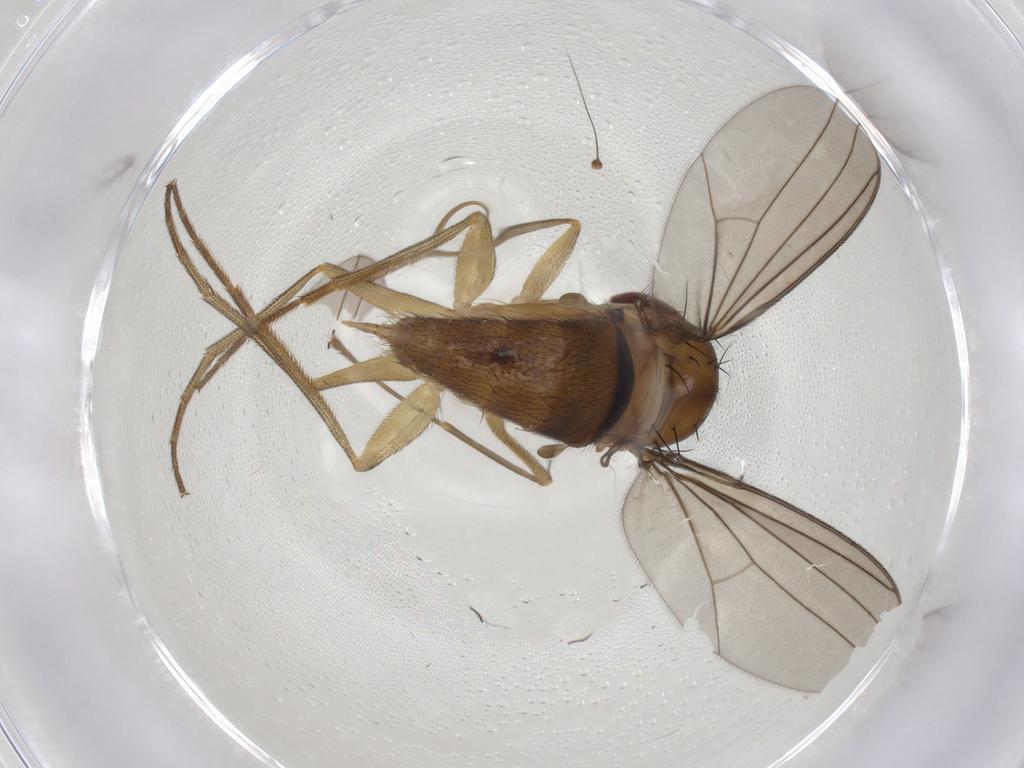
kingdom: Animalia
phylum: Arthropoda
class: Insecta
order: Diptera
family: Dolichopodidae
